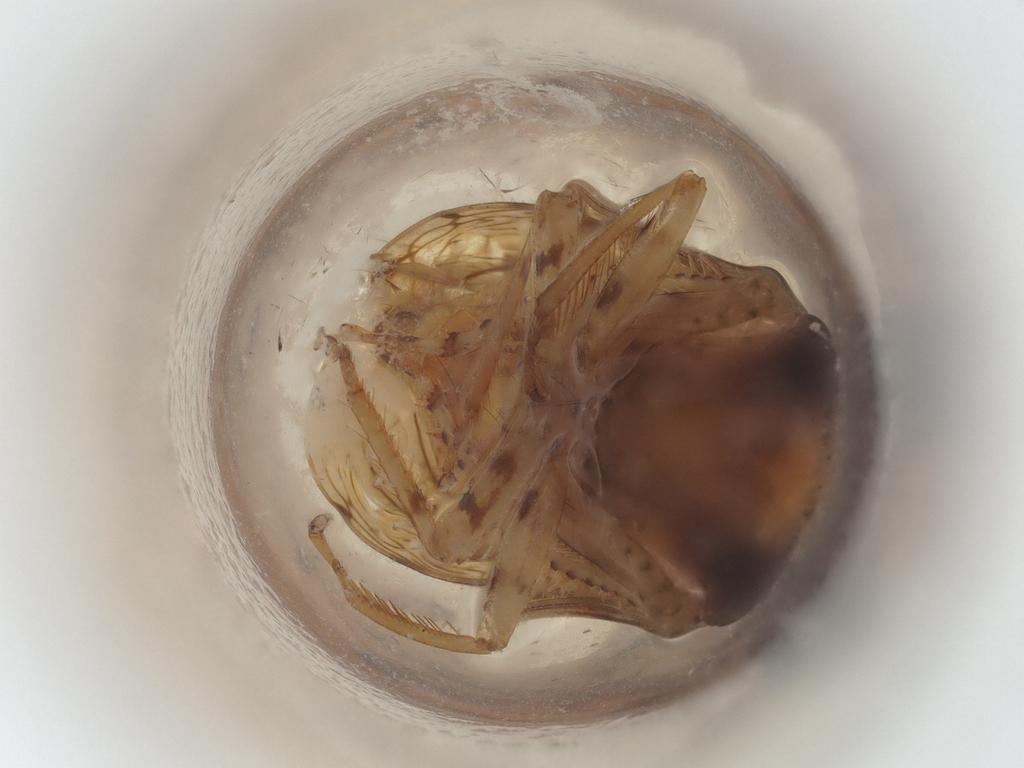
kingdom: Animalia
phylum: Arthropoda
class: Insecta
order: Hemiptera
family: Cicadellidae
